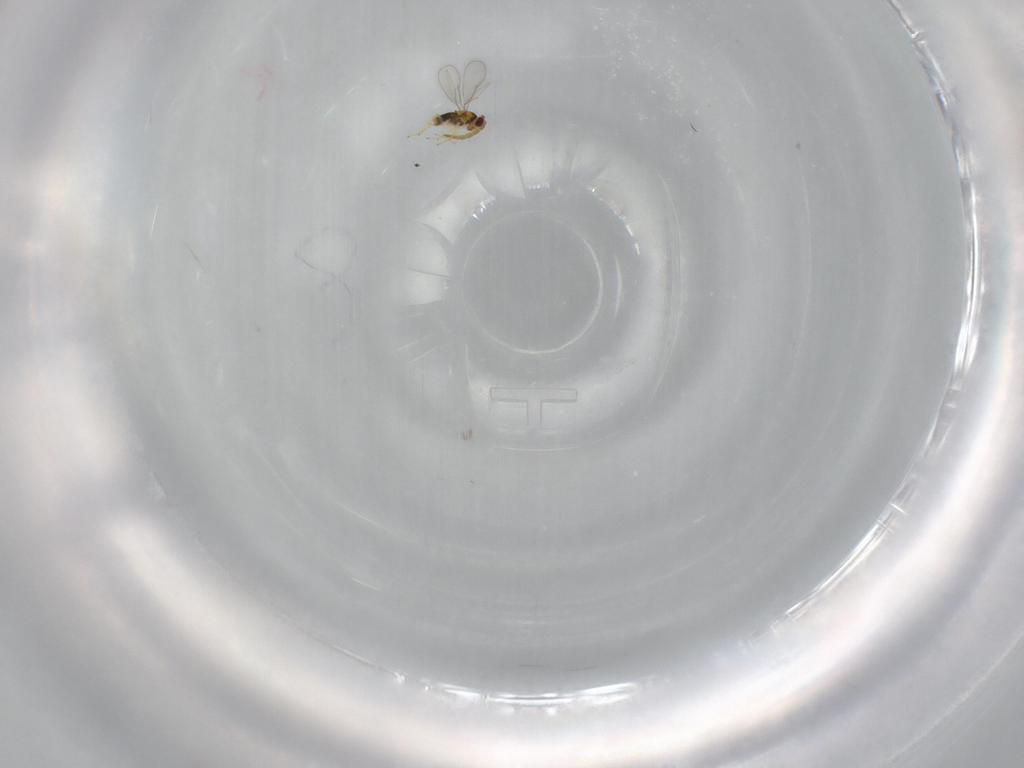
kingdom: Animalia
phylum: Arthropoda
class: Insecta
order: Hymenoptera
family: Aphelinidae
